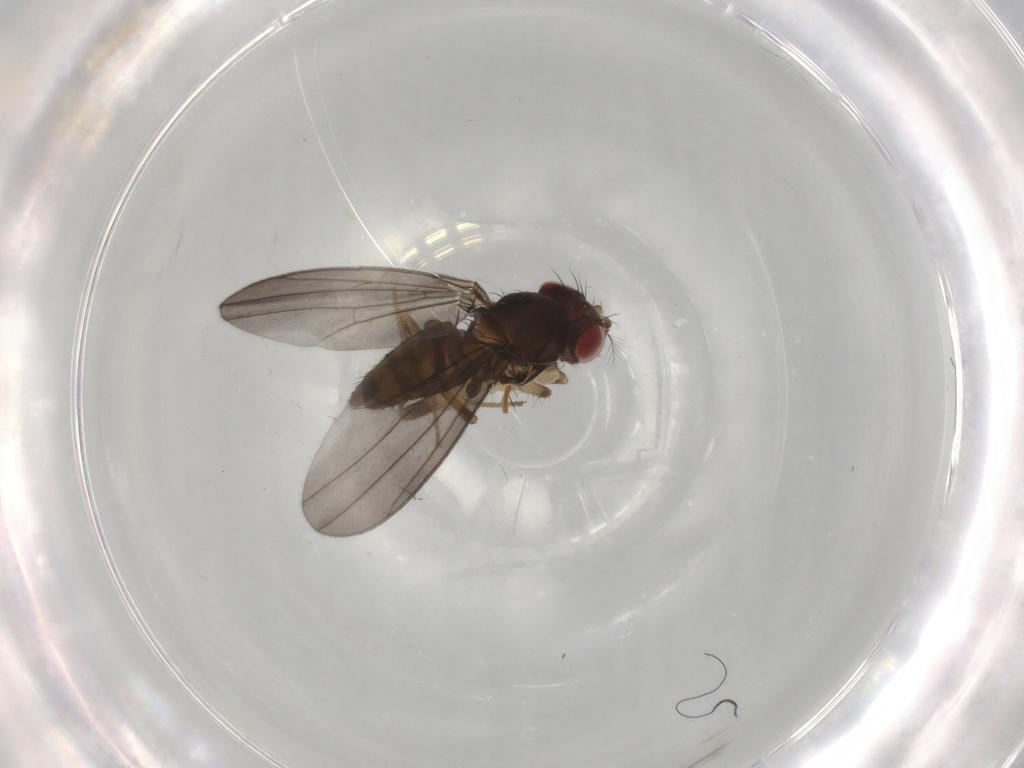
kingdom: Animalia
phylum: Arthropoda
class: Insecta
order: Diptera
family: Drosophilidae
